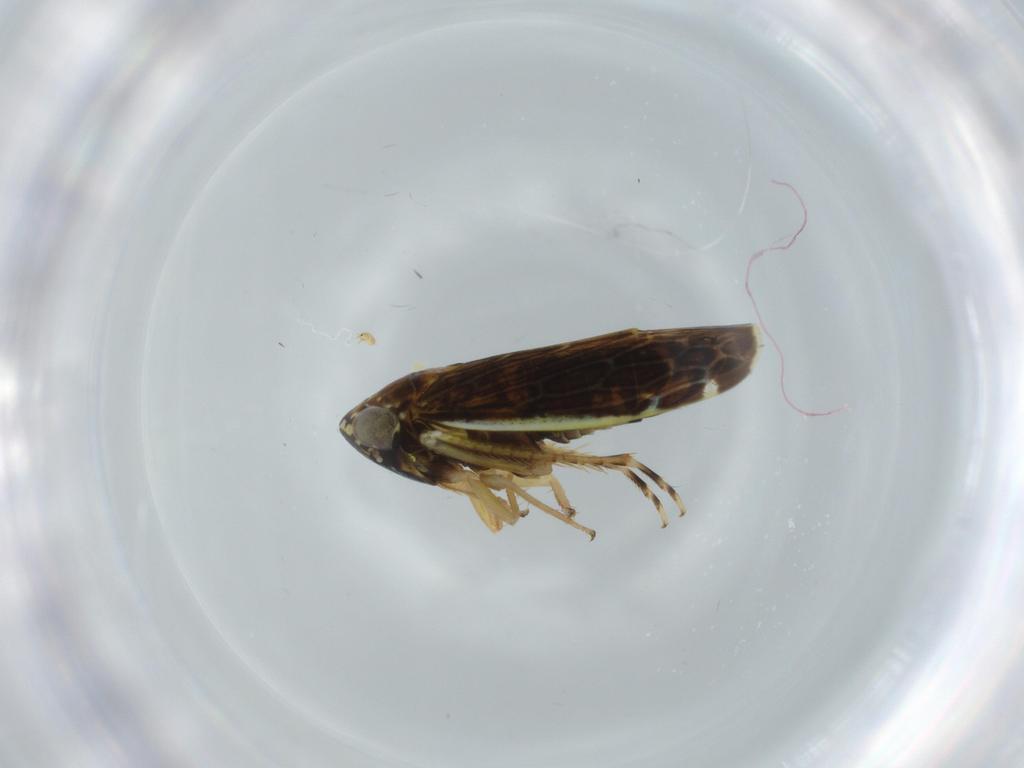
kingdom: Animalia
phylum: Arthropoda
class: Insecta
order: Hemiptera
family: Cicadellidae
